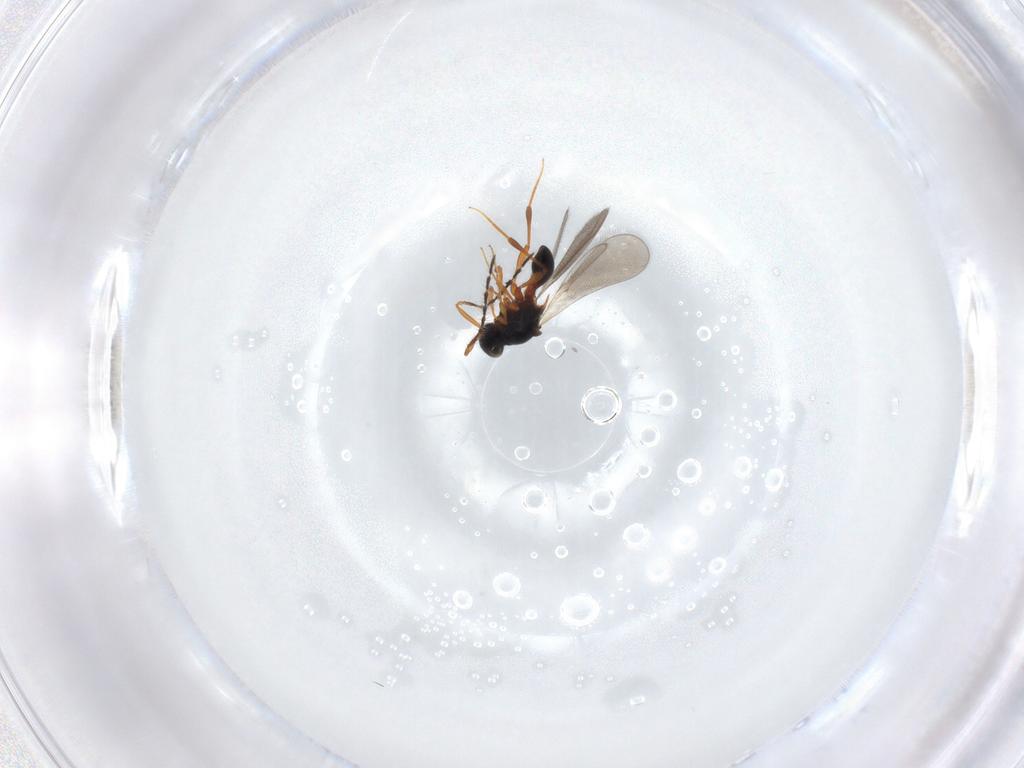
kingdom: Animalia
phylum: Arthropoda
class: Insecta
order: Hymenoptera
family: Platygastridae
